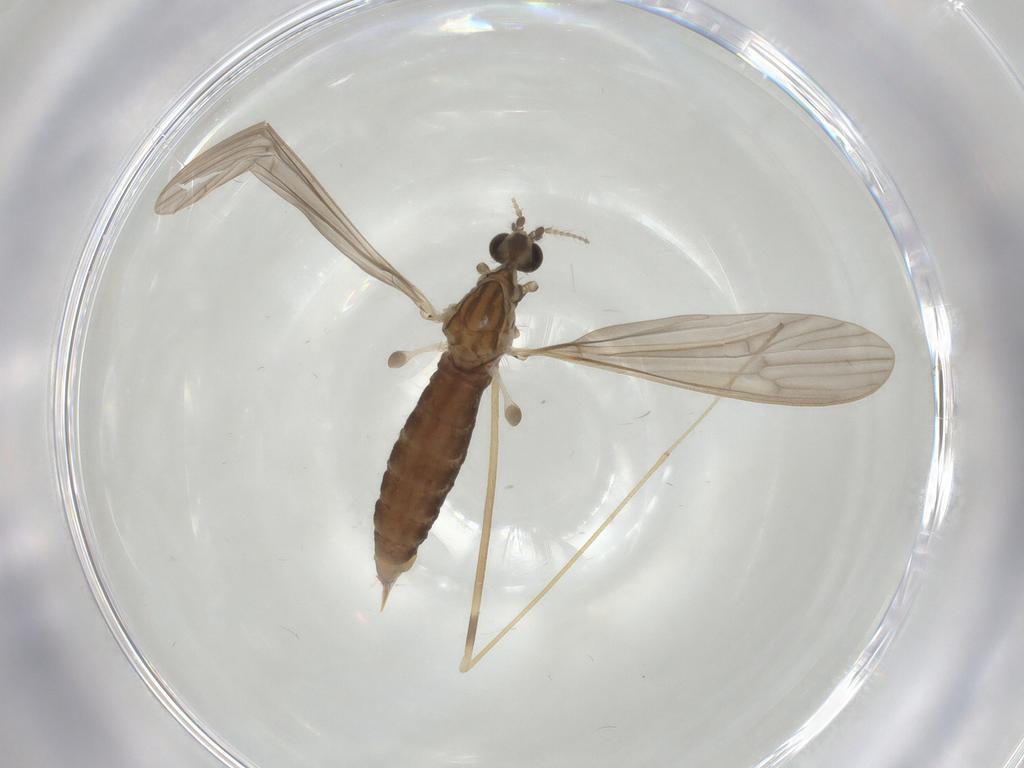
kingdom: Animalia
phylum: Arthropoda
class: Insecta
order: Diptera
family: Limoniidae
